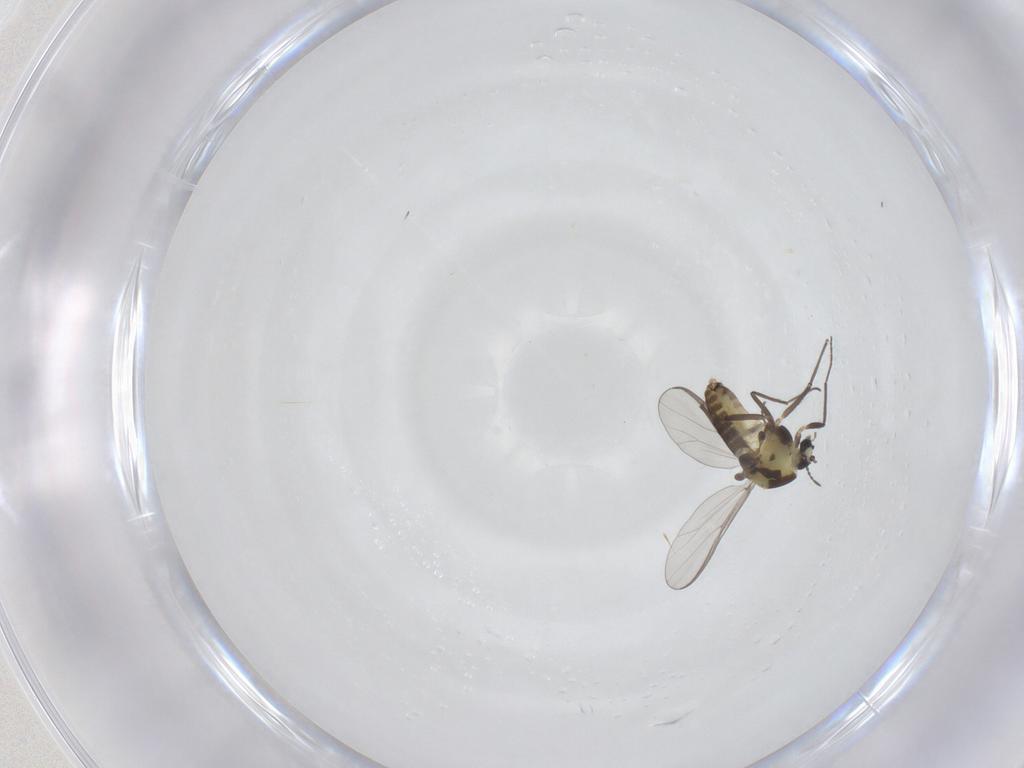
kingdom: Animalia
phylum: Arthropoda
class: Insecta
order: Diptera
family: Chironomidae
